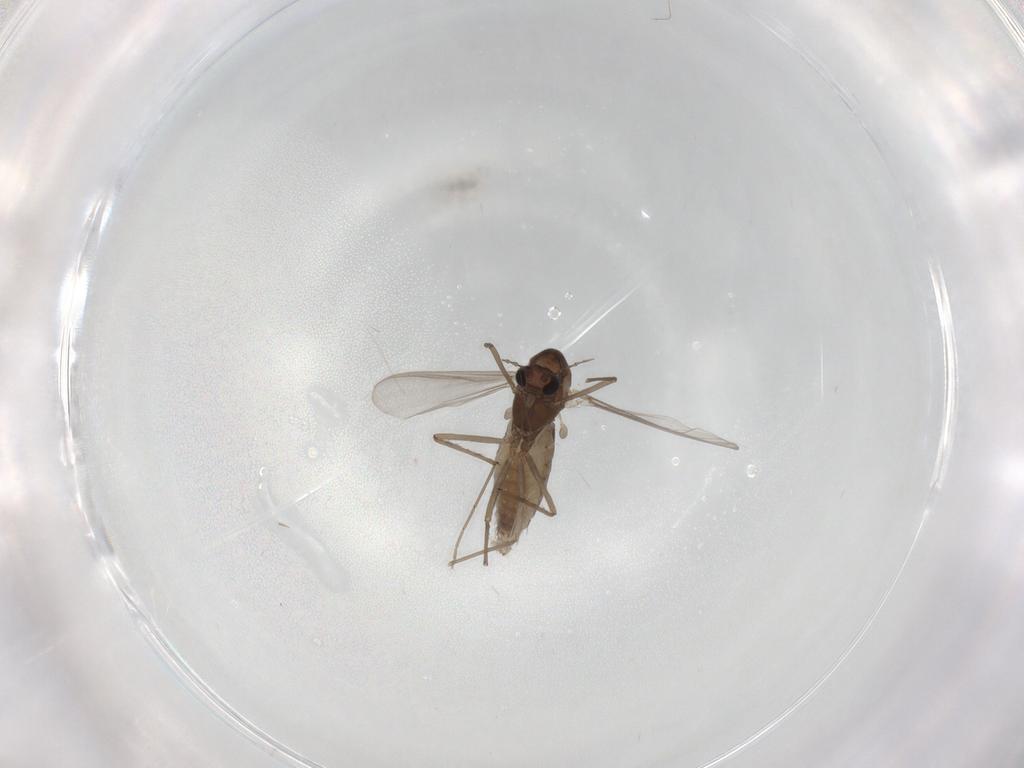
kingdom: Animalia
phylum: Arthropoda
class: Insecta
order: Diptera
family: Chironomidae
